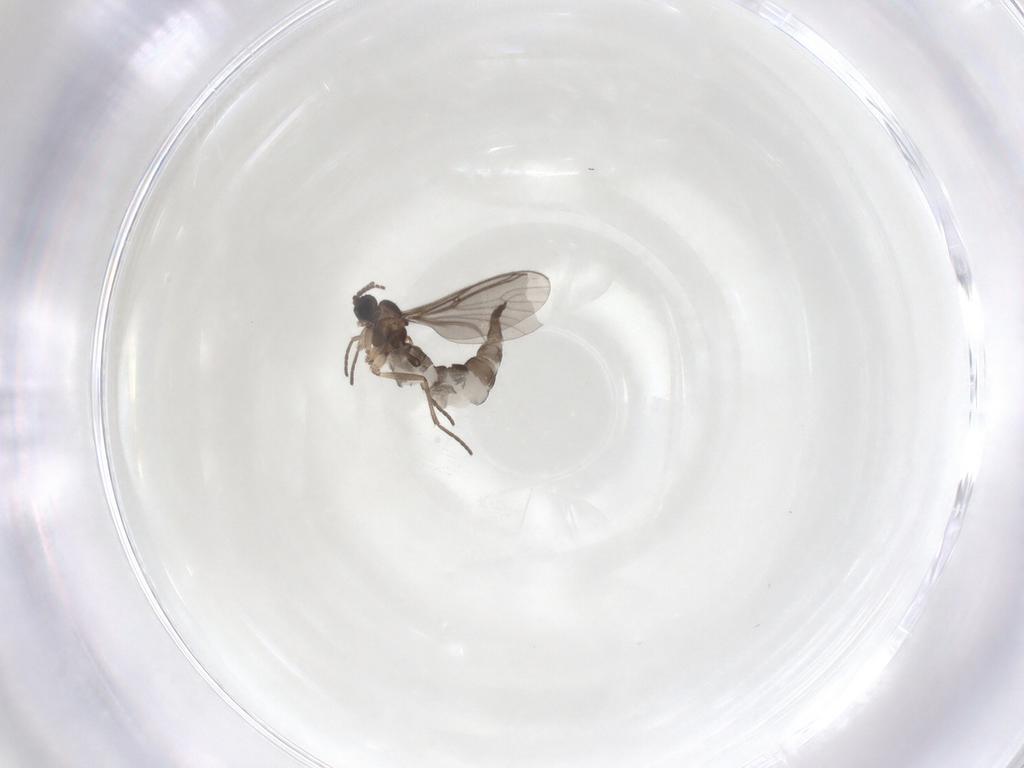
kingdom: Animalia
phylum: Arthropoda
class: Insecta
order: Diptera
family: Sciaridae
